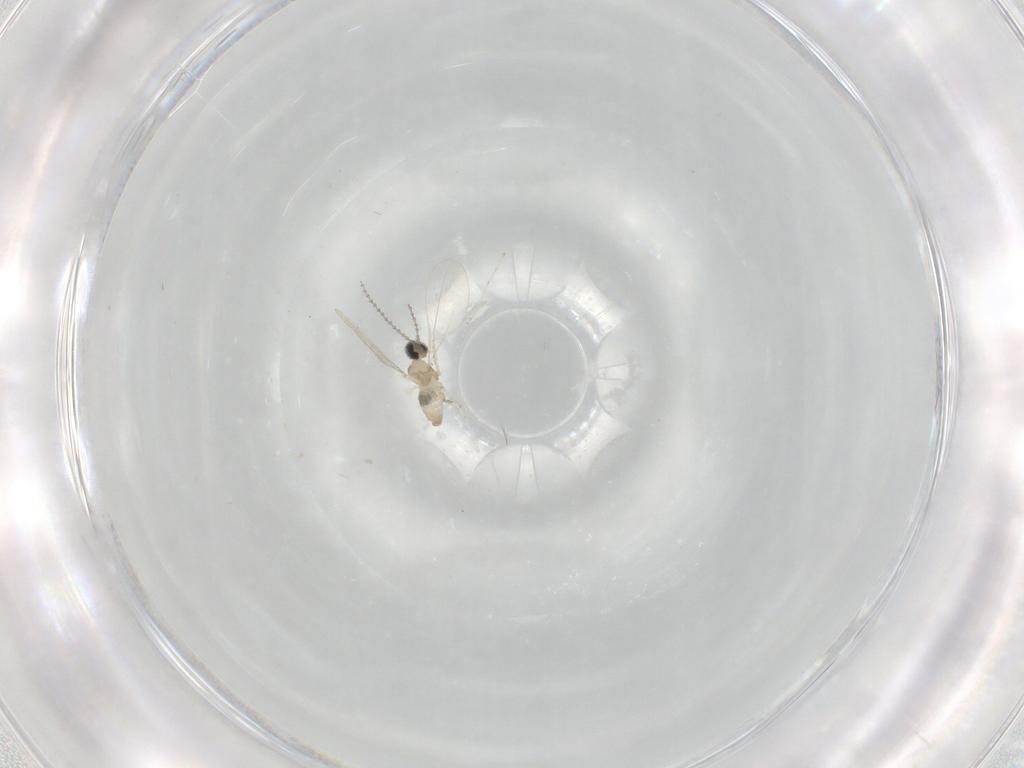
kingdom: Animalia
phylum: Arthropoda
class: Insecta
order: Diptera
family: Cecidomyiidae
